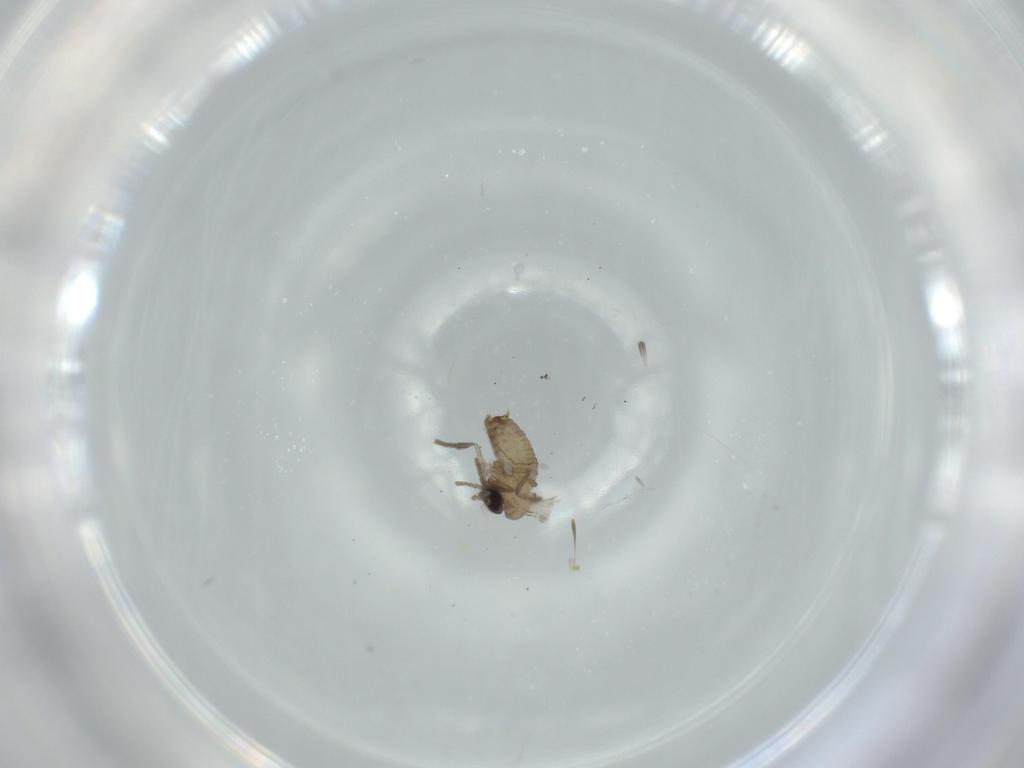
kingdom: Animalia
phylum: Arthropoda
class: Insecta
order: Diptera
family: Psychodidae
